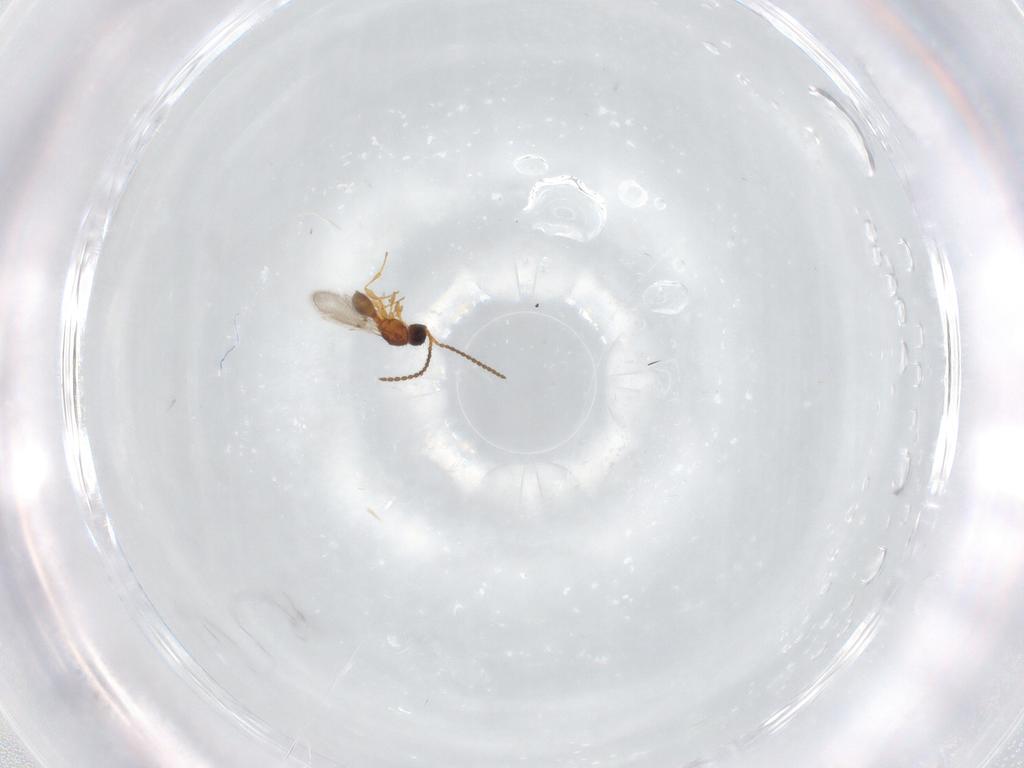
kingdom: Animalia
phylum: Arthropoda
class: Insecta
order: Hymenoptera
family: Diapriidae
